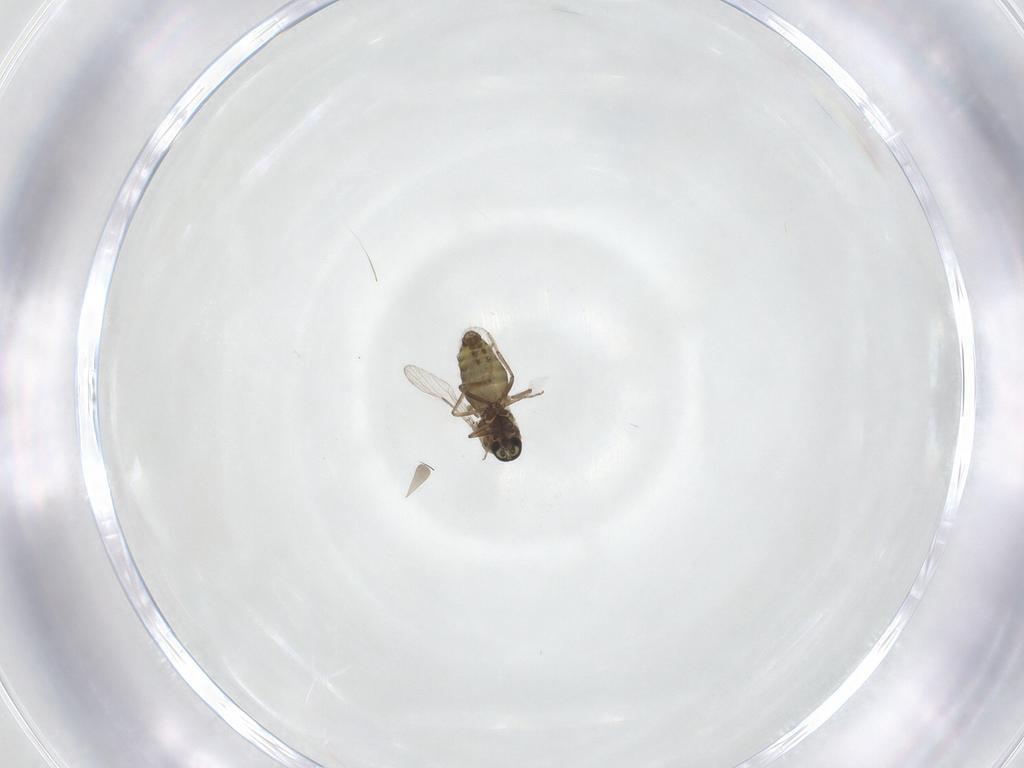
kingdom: Animalia
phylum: Arthropoda
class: Insecta
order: Diptera
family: Ceratopogonidae
